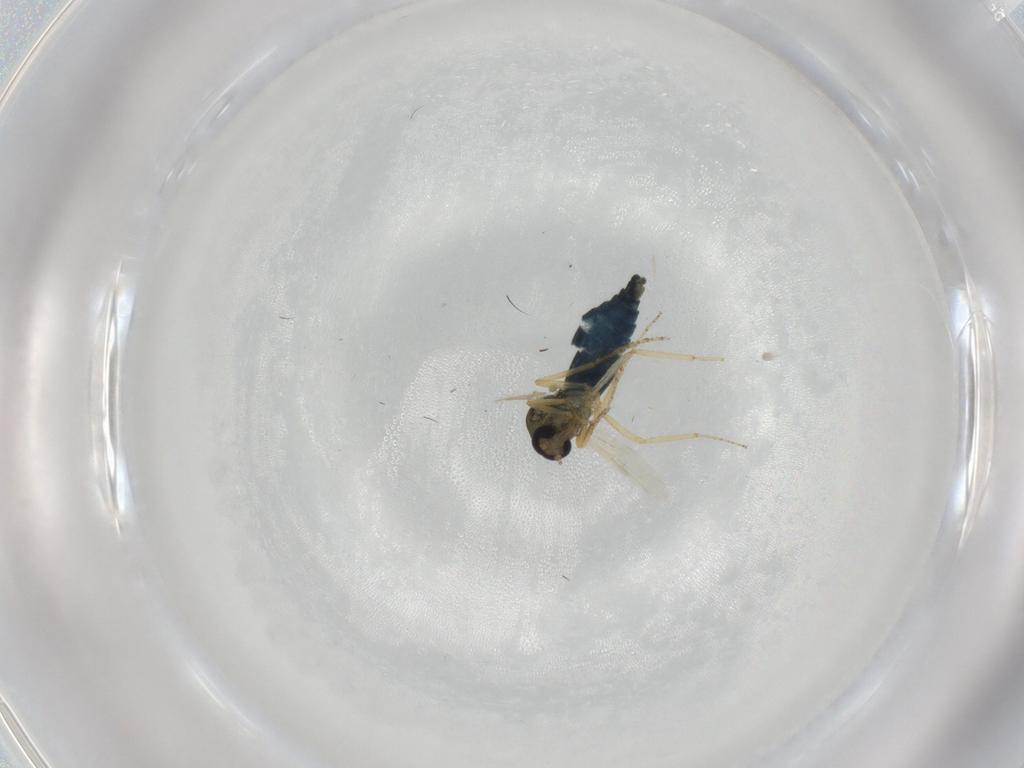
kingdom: Animalia
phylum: Arthropoda
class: Insecta
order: Diptera
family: Ceratopogonidae
